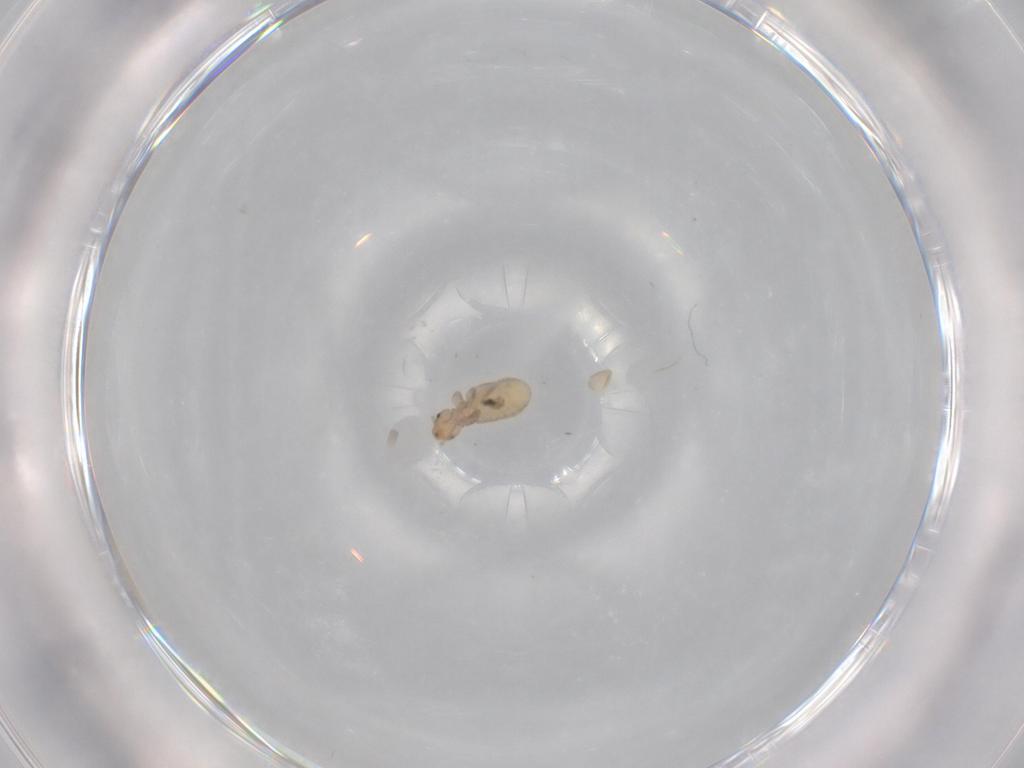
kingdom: Animalia
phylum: Arthropoda
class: Insecta
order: Psocodea
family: Liposcelididae
